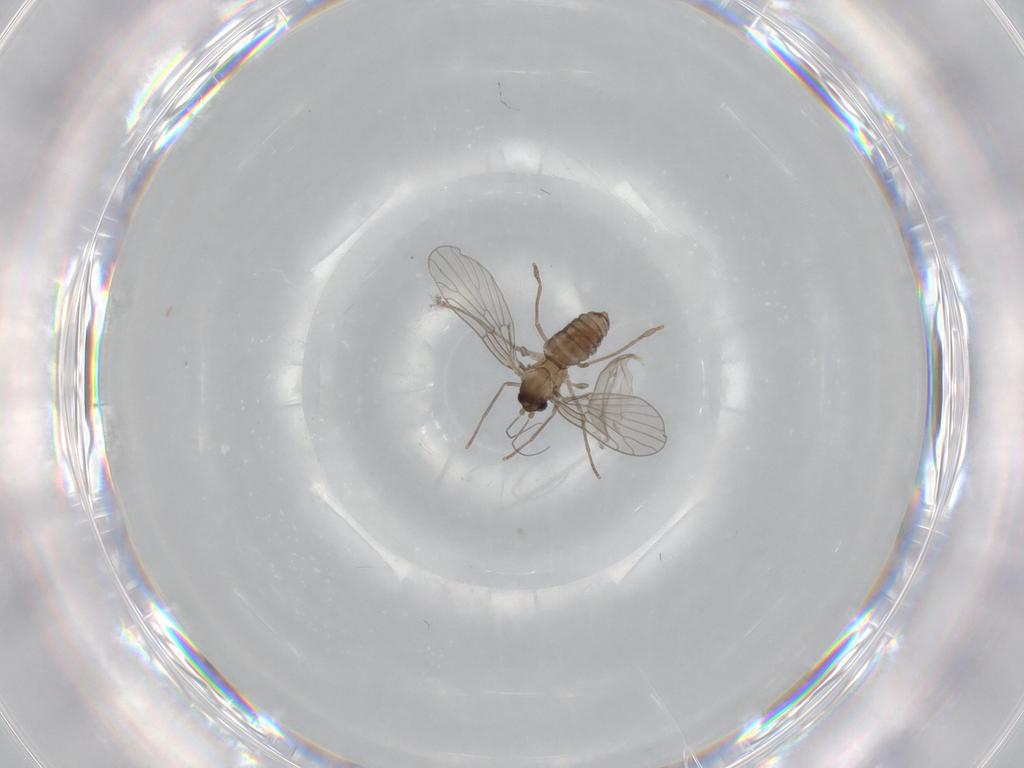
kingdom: Animalia
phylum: Arthropoda
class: Insecta
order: Diptera
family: Psychodidae
